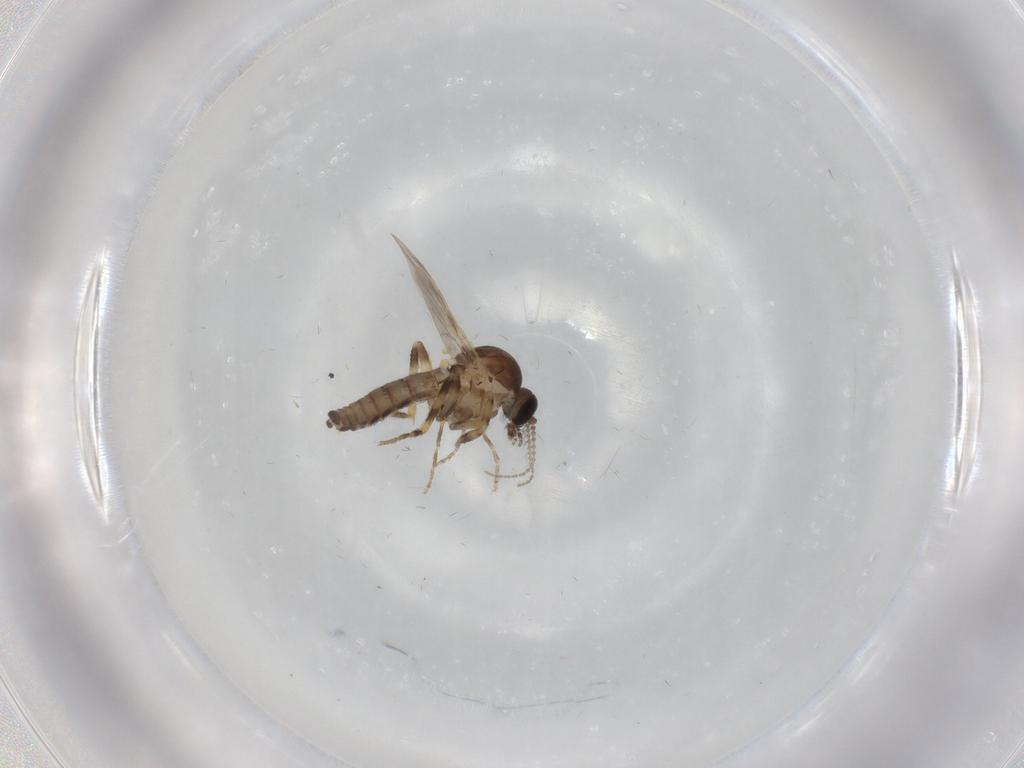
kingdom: Animalia
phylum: Arthropoda
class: Insecta
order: Diptera
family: Ceratopogonidae
